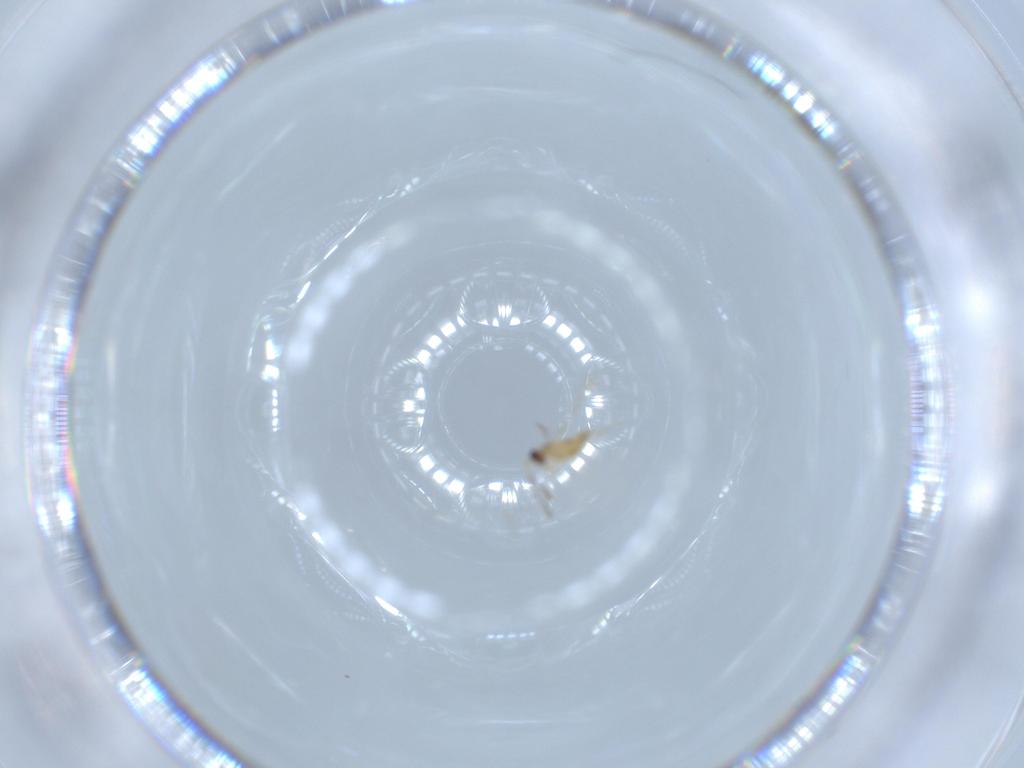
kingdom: Animalia
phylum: Arthropoda
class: Insecta
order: Hymenoptera
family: Mymaridae
